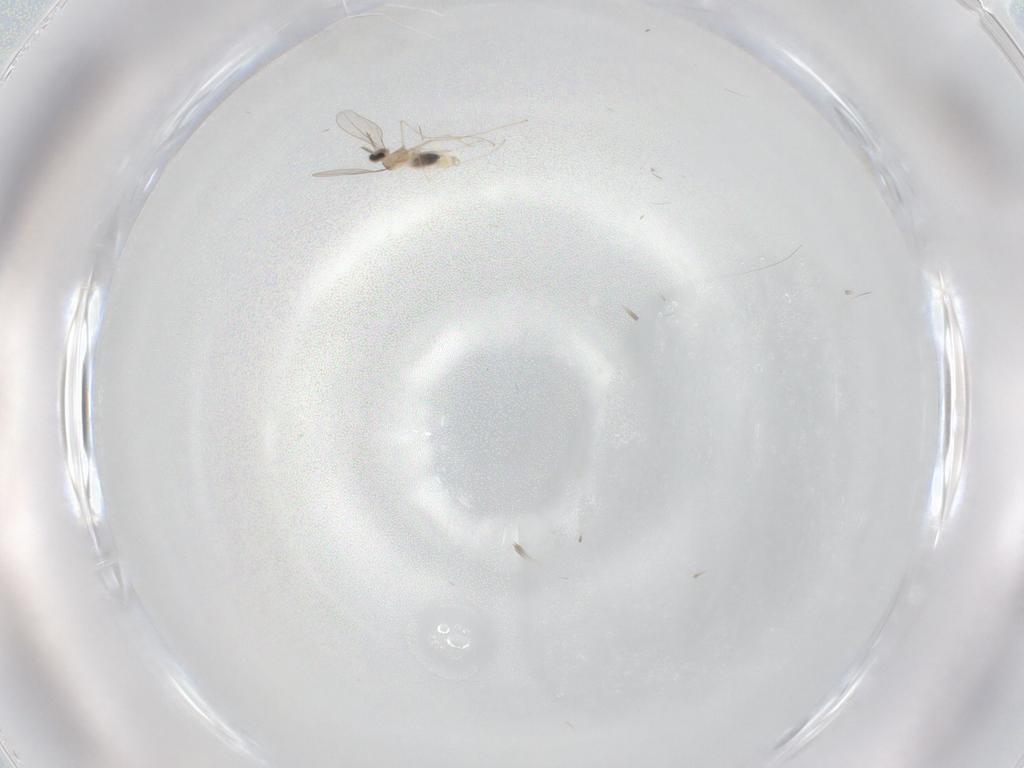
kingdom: Animalia
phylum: Arthropoda
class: Insecta
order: Diptera
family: Cecidomyiidae
